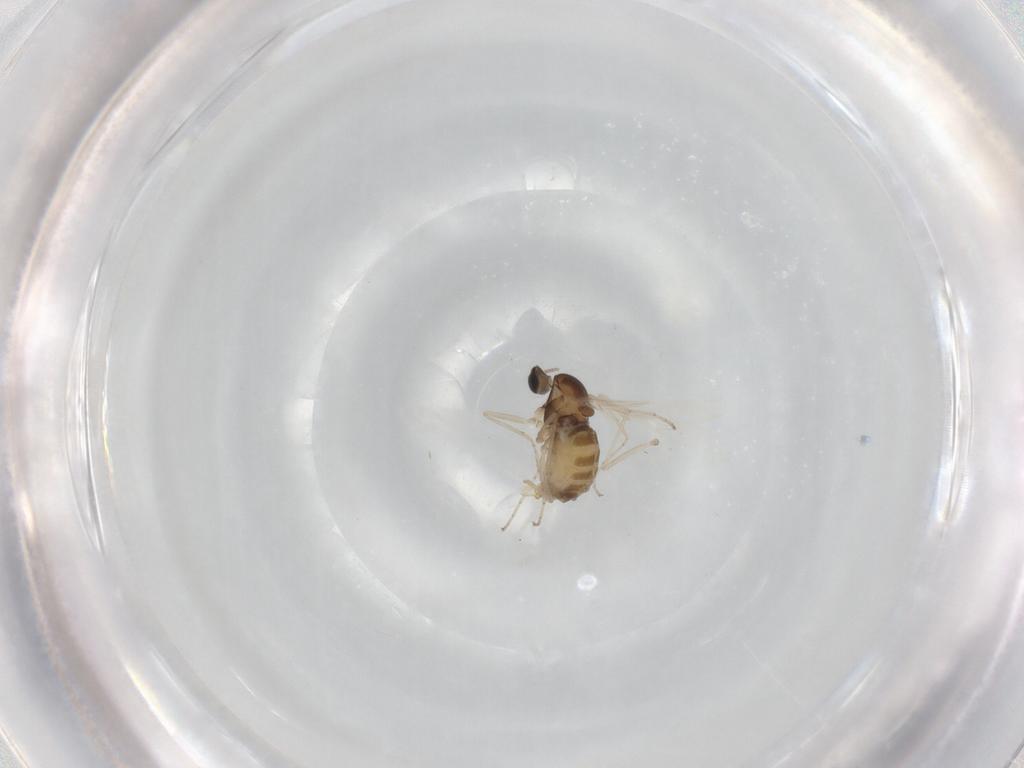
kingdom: Animalia
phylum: Arthropoda
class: Insecta
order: Diptera
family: Cecidomyiidae
